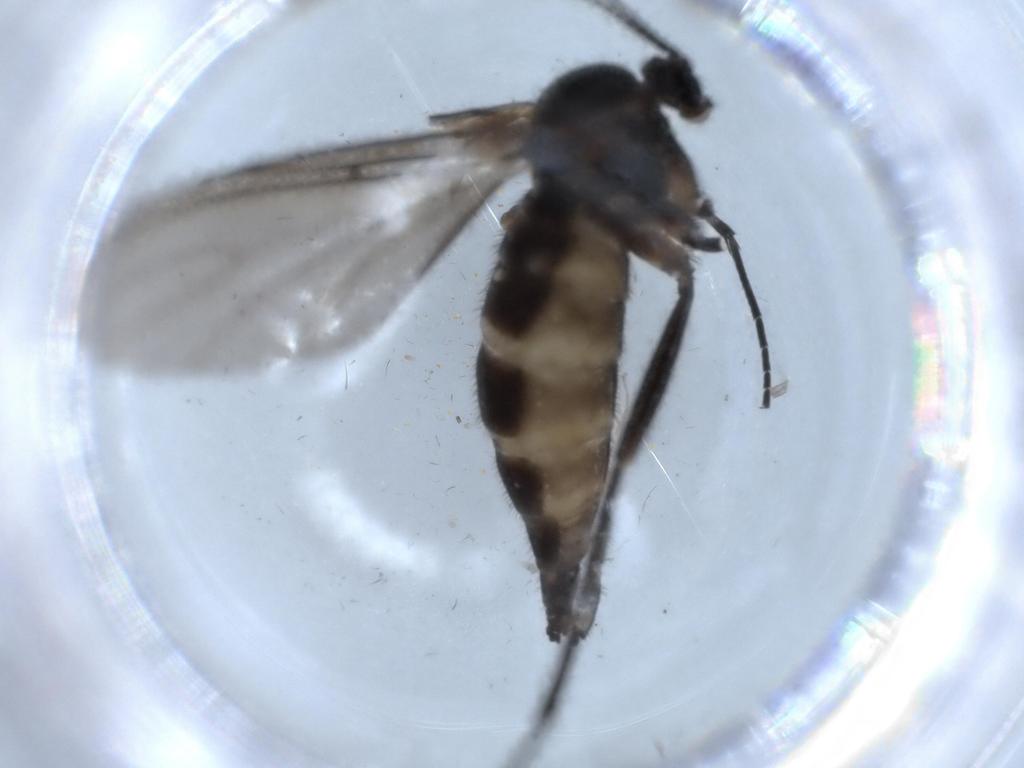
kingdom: Animalia
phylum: Arthropoda
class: Insecta
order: Diptera
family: Sciaridae
